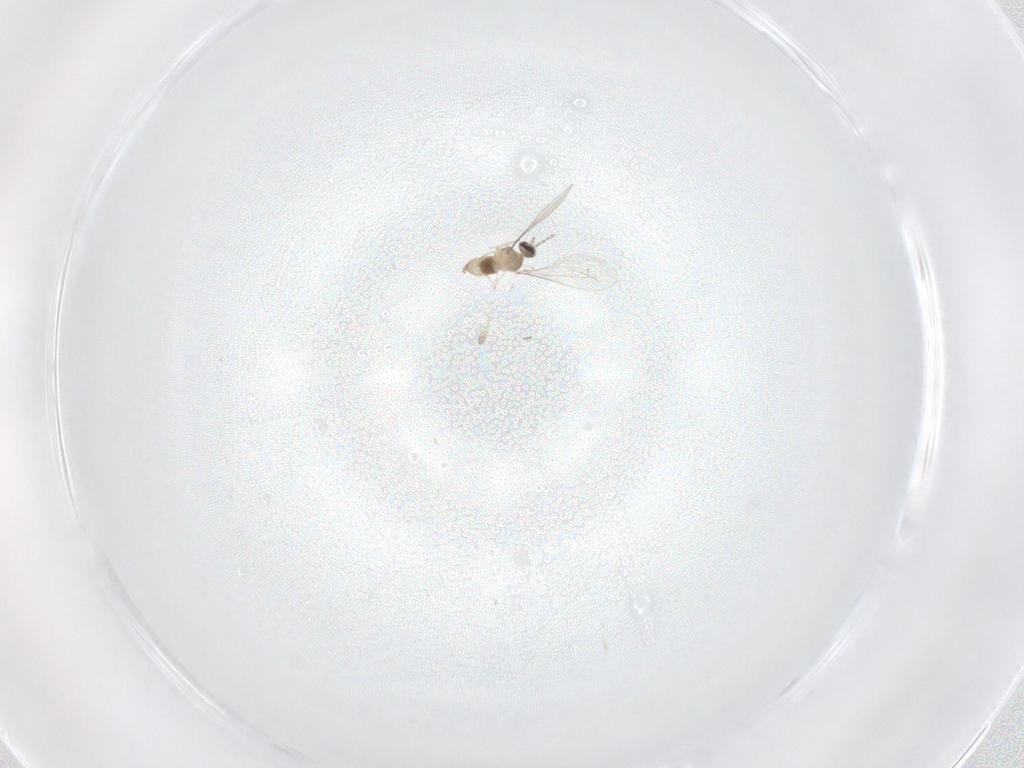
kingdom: Animalia
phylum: Arthropoda
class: Insecta
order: Diptera
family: Cecidomyiidae
